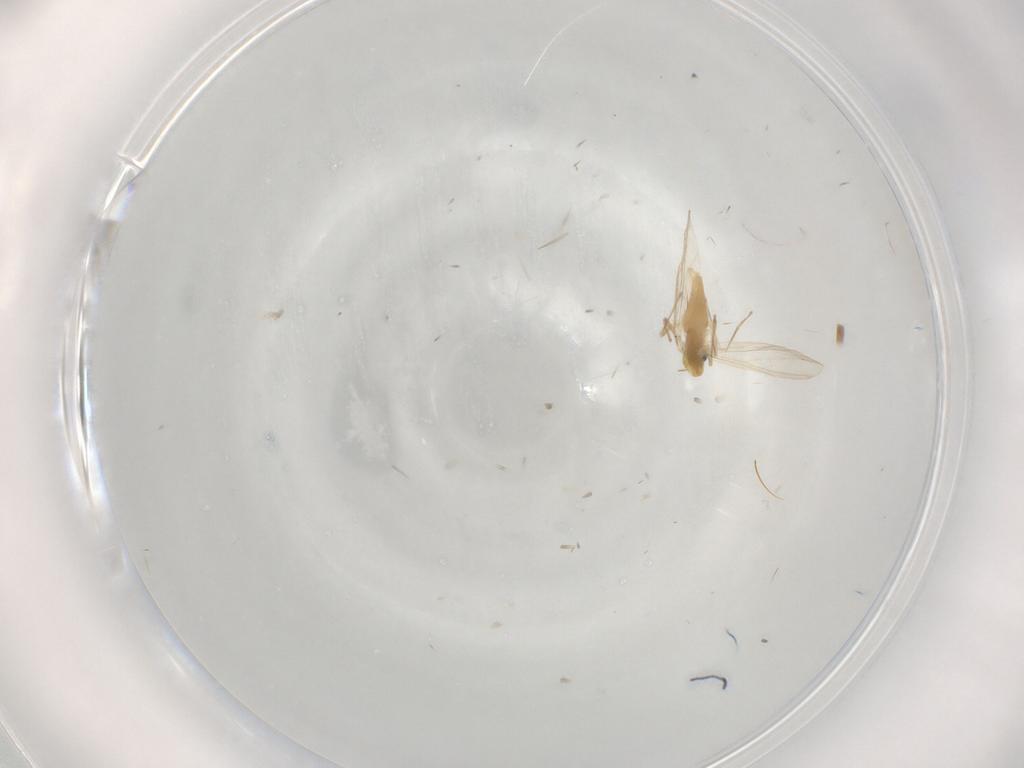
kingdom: Animalia
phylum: Arthropoda
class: Insecta
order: Diptera
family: Chironomidae
